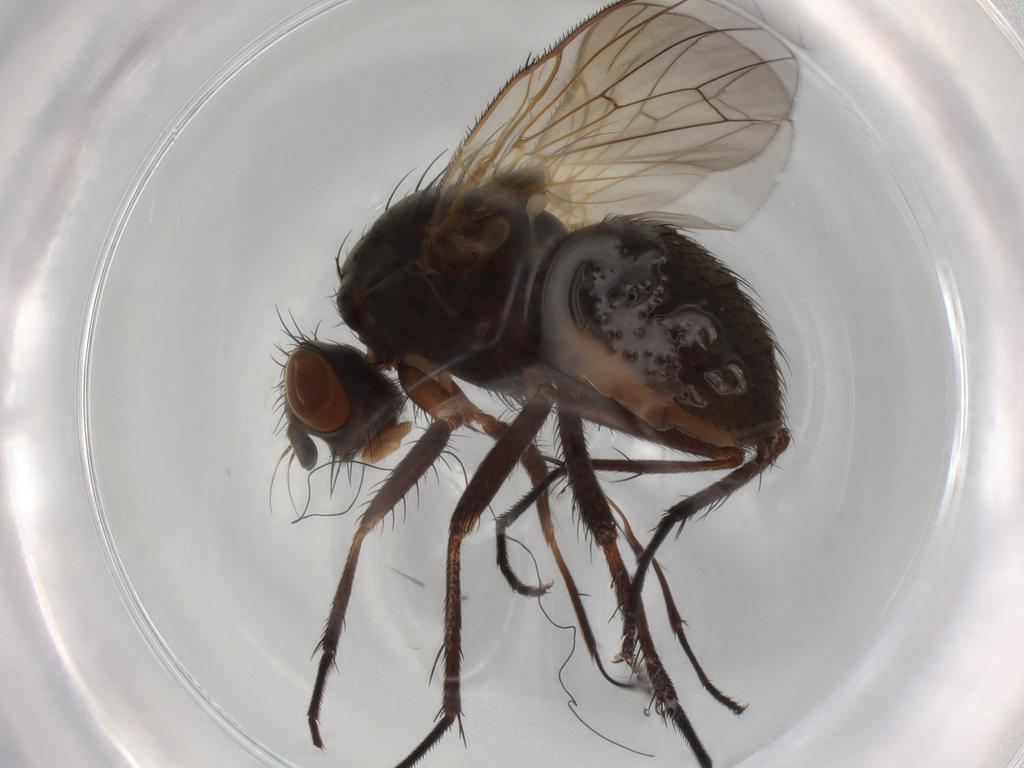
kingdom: Animalia
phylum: Arthropoda
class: Insecta
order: Diptera
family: Anthomyiidae
